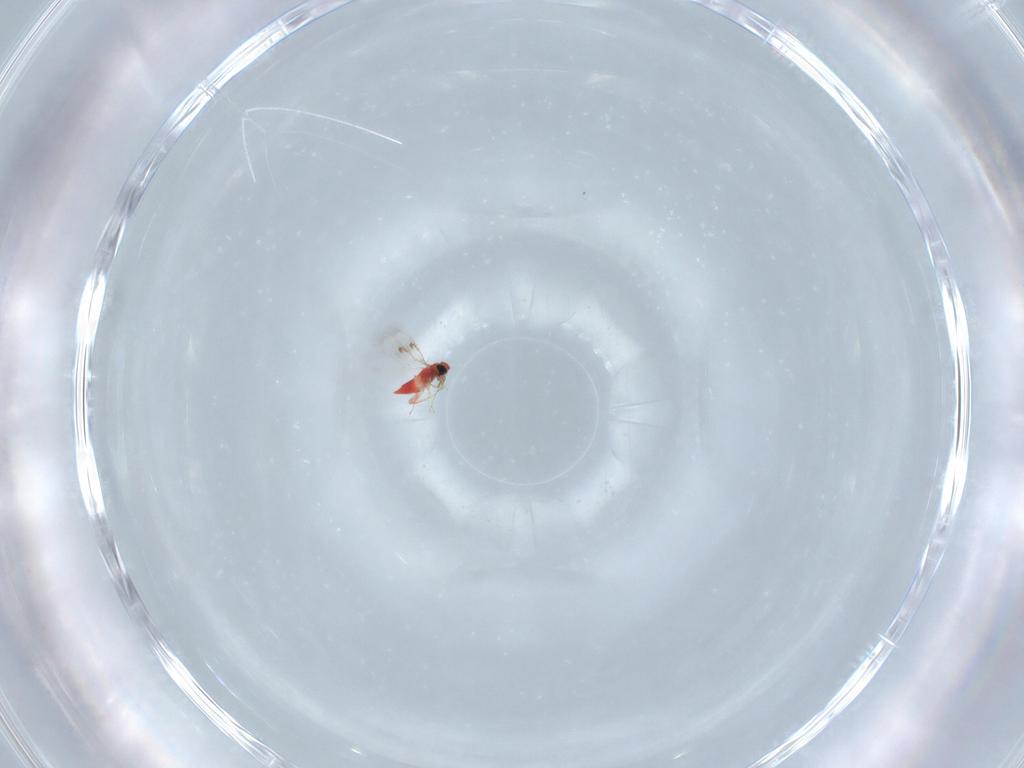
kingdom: Animalia
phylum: Arthropoda
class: Insecta
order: Hymenoptera
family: Trichogrammatidae
